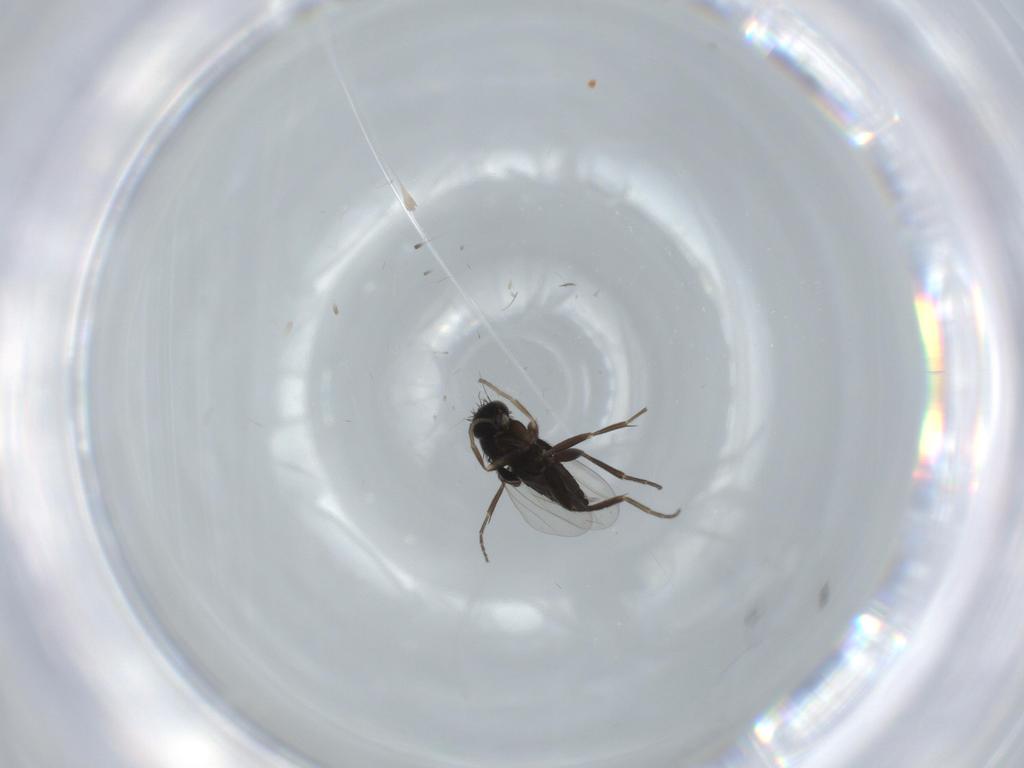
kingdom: Animalia
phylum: Arthropoda
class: Insecta
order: Diptera
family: Phoridae
